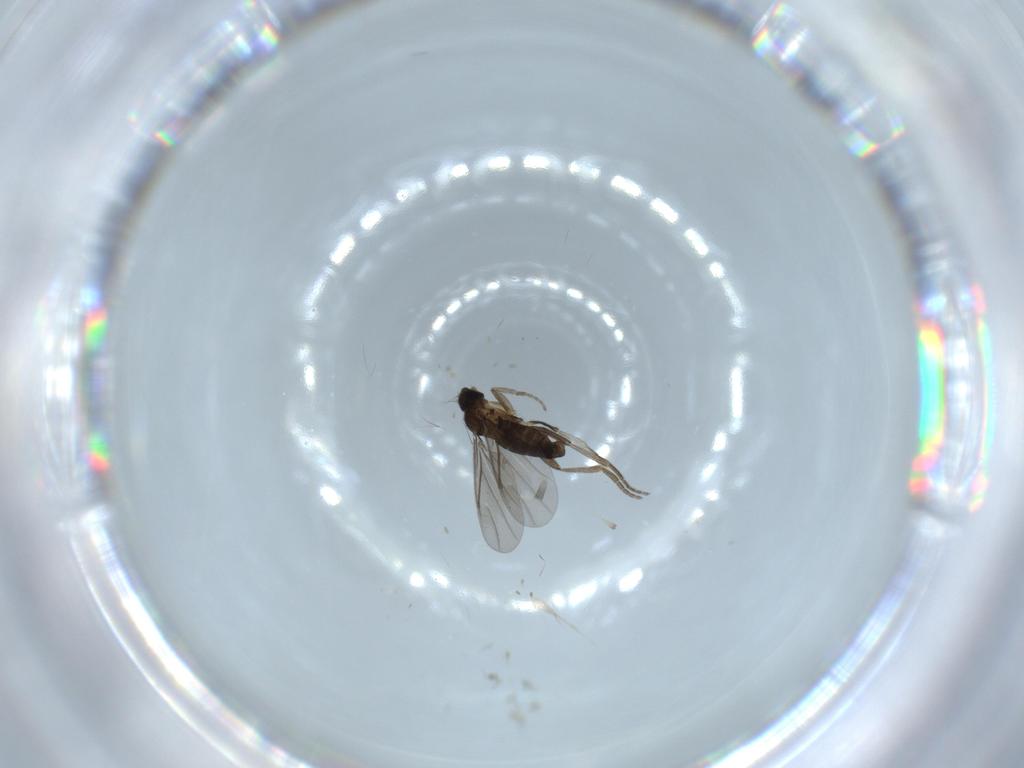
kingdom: Animalia
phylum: Arthropoda
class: Insecta
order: Diptera
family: Phoridae
